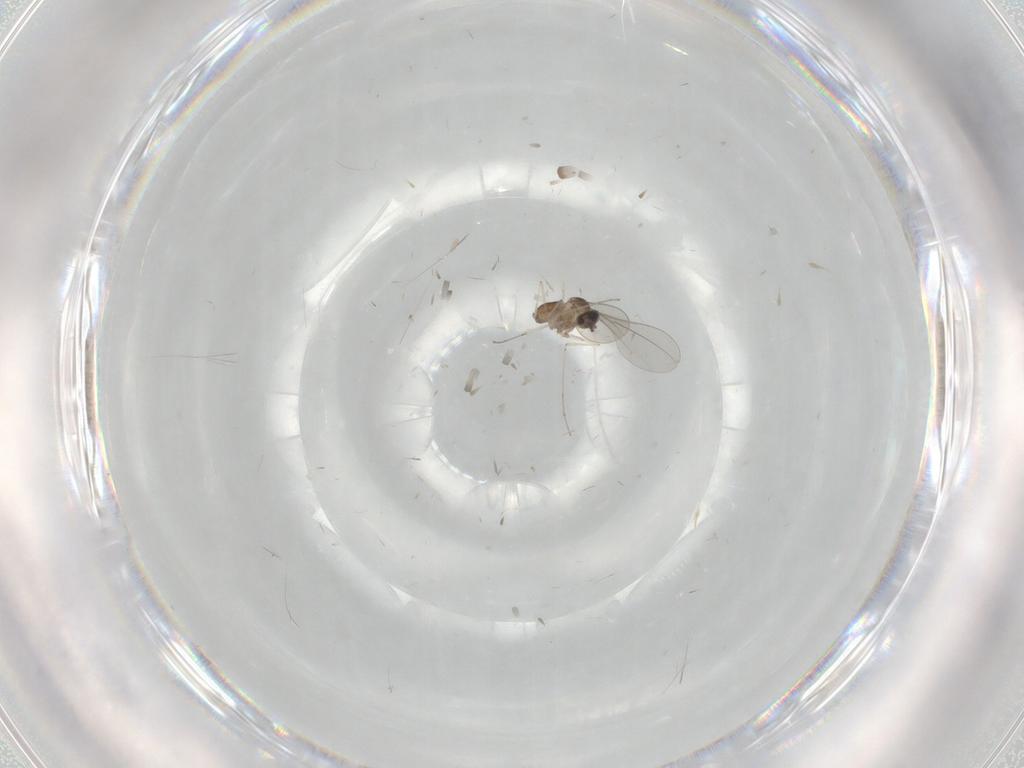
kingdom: Animalia
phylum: Arthropoda
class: Insecta
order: Diptera
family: Cecidomyiidae
